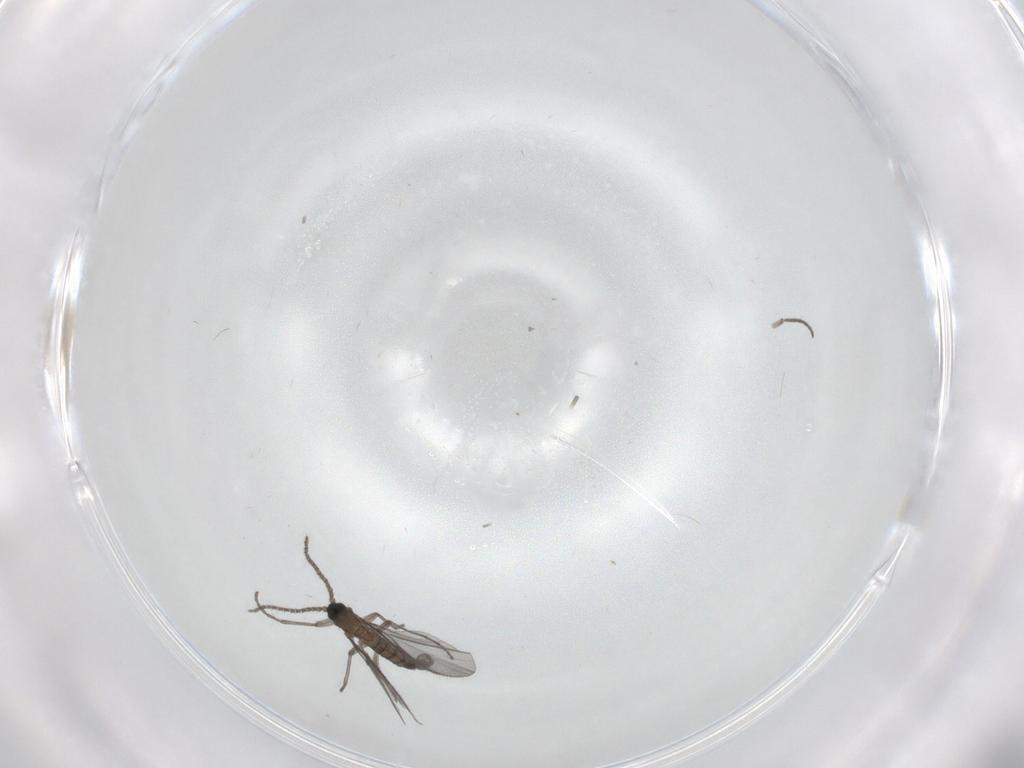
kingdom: Animalia
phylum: Arthropoda
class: Insecta
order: Diptera
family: Sciaridae
